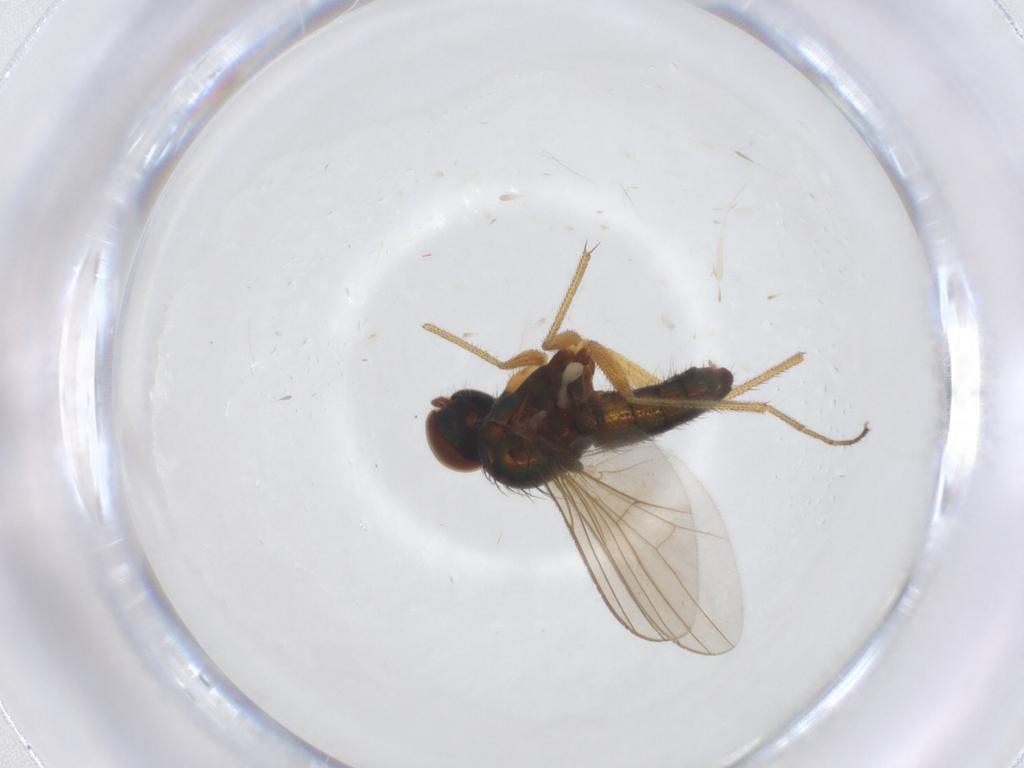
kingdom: Animalia
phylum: Arthropoda
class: Insecta
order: Diptera
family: Dolichopodidae
